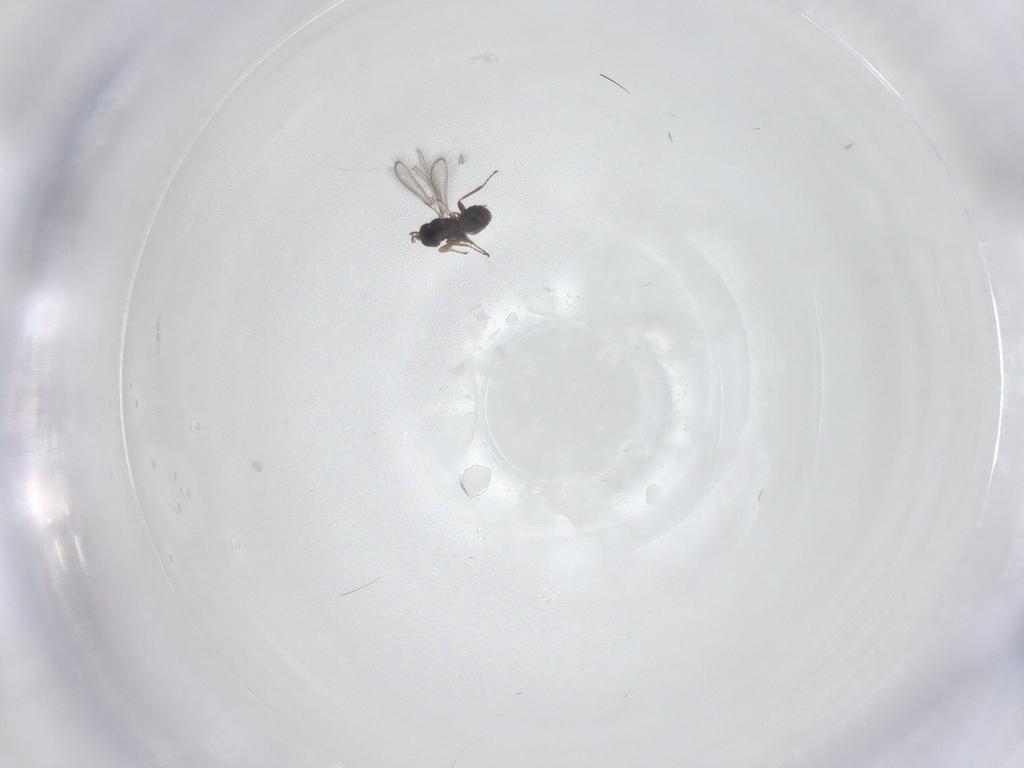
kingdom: Animalia
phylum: Arthropoda
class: Insecta
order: Hymenoptera
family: Mymaridae
